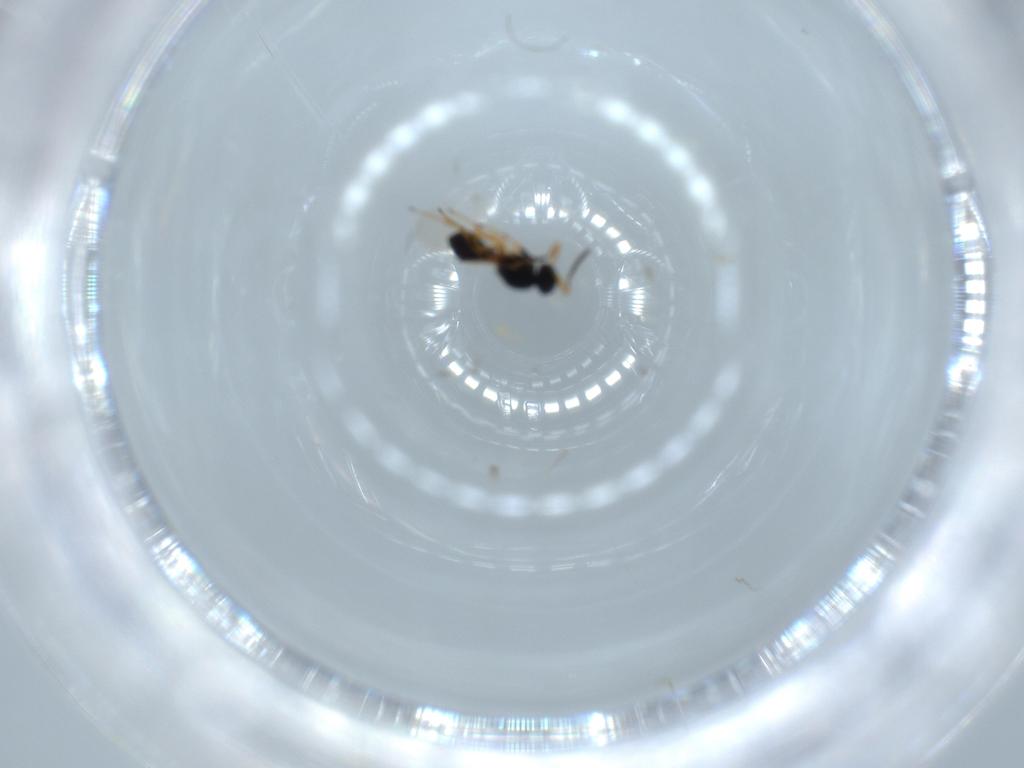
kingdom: Animalia
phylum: Arthropoda
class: Insecta
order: Hymenoptera
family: Platygastridae
